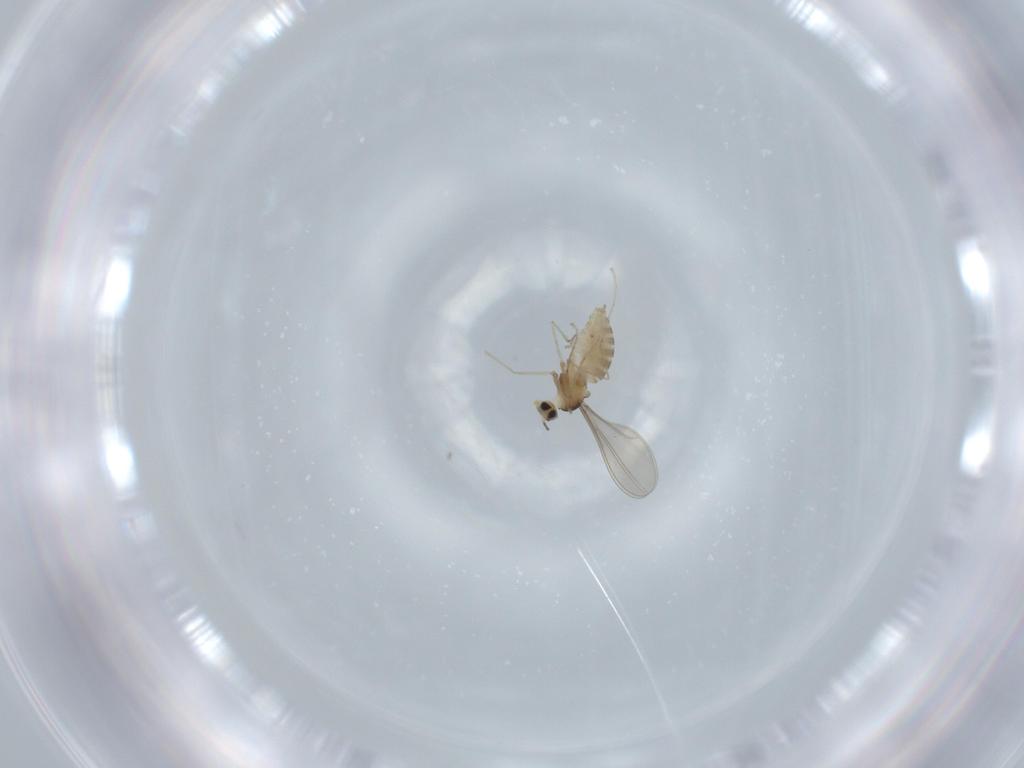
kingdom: Animalia
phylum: Arthropoda
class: Insecta
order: Diptera
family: Cecidomyiidae
